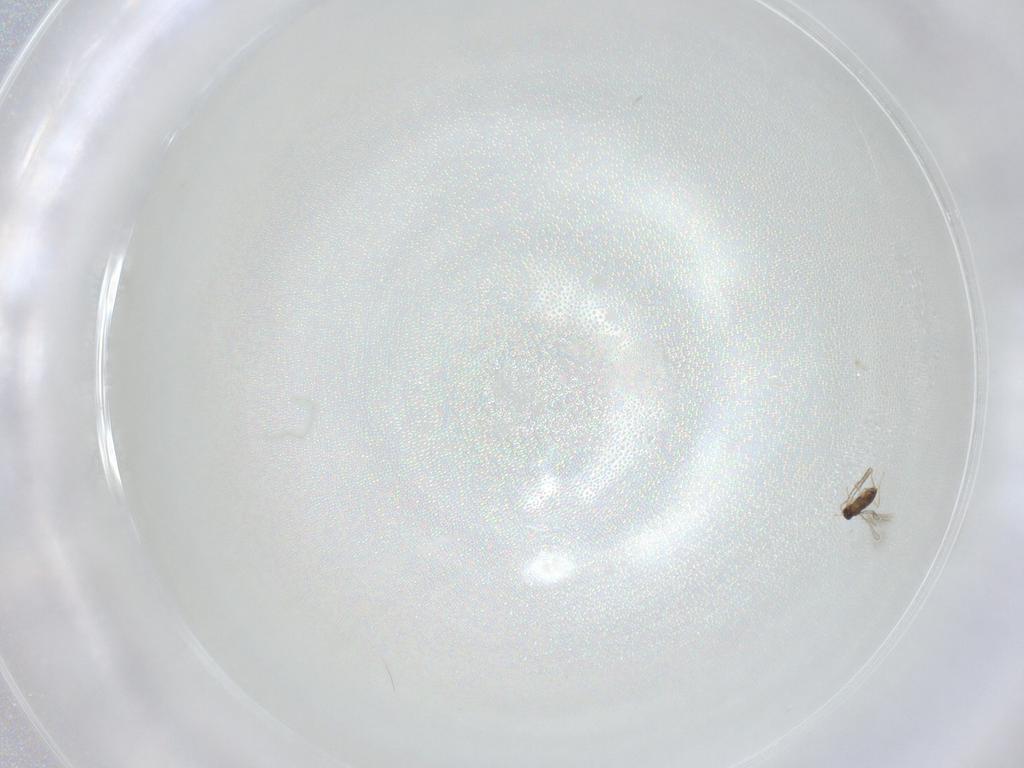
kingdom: Animalia
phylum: Arthropoda
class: Insecta
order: Hymenoptera
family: Mymaridae
